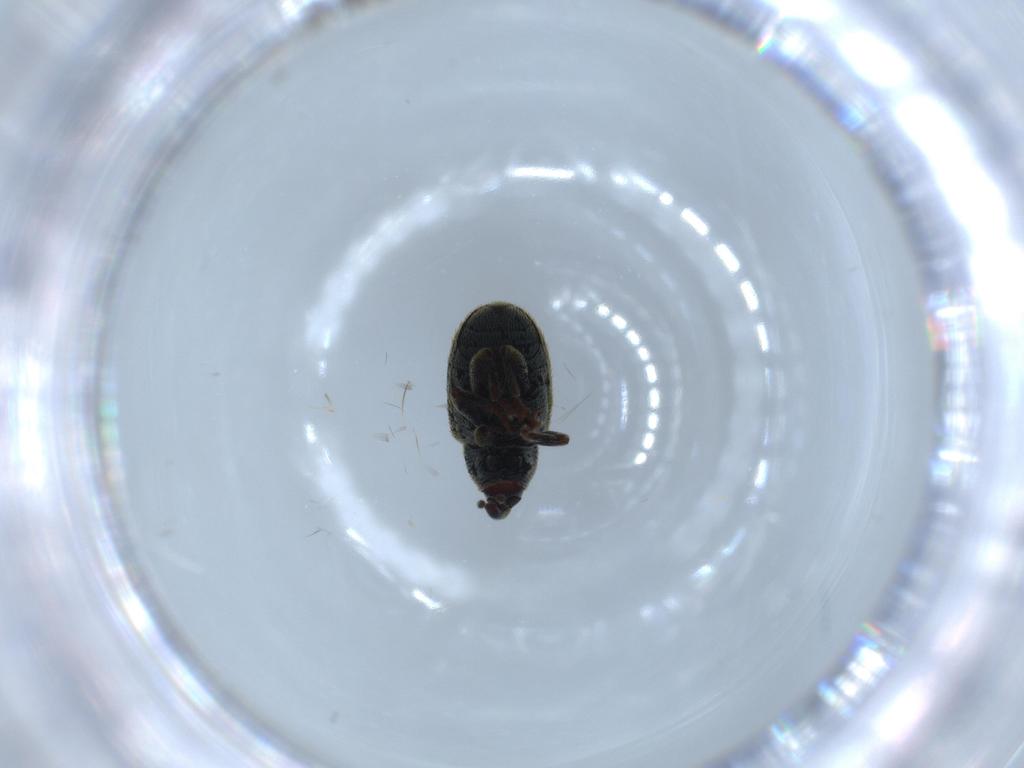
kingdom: Animalia
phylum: Arthropoda
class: Insecta
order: Coleoptera
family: Curculionidae
